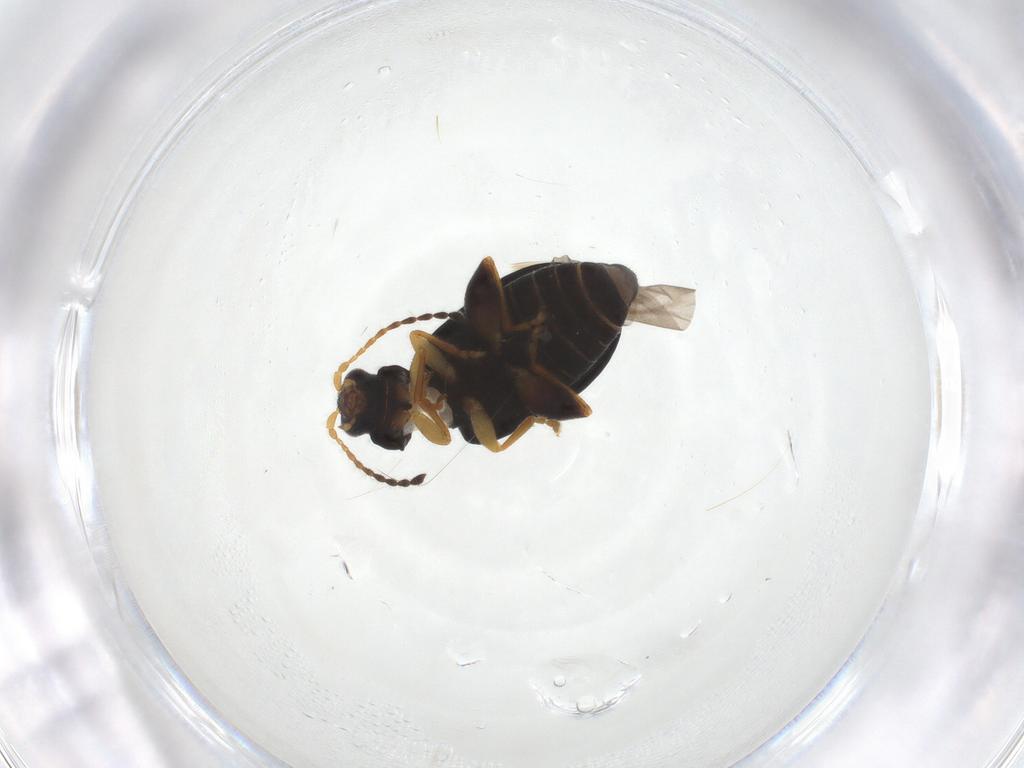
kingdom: Animalia
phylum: Arthropoda
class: Insecta
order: Coleoptera
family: Chrysomelidae
